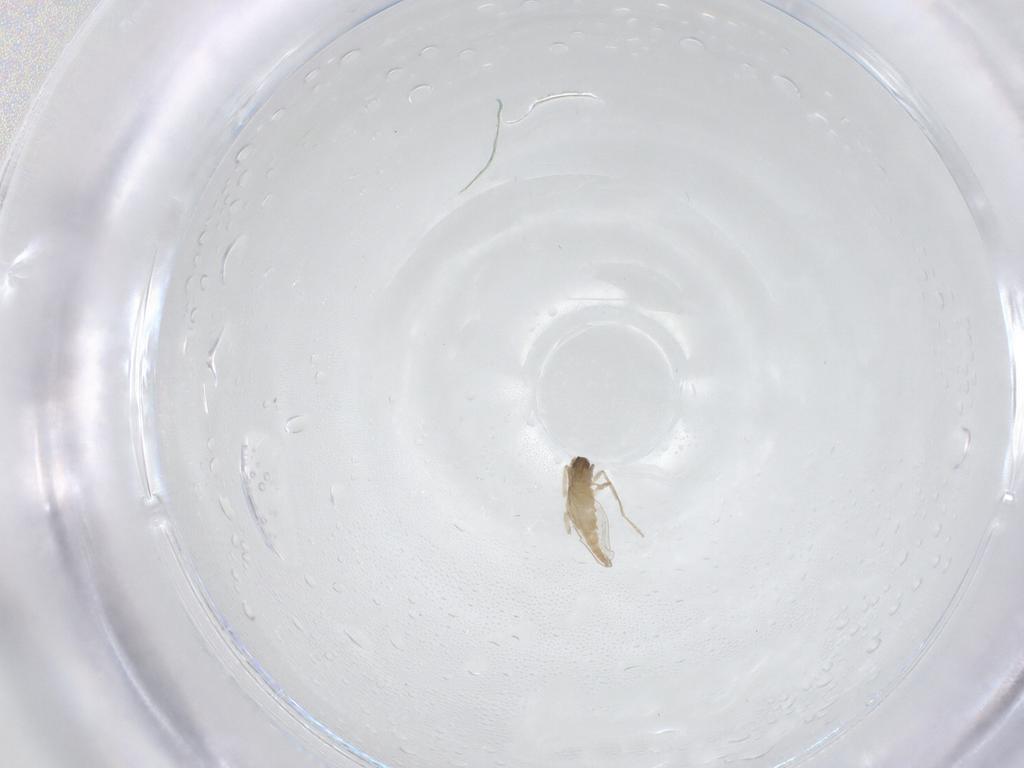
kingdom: Animalia
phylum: Arthropoda
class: Insecta
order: Diptera
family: Cecidomyiidae
